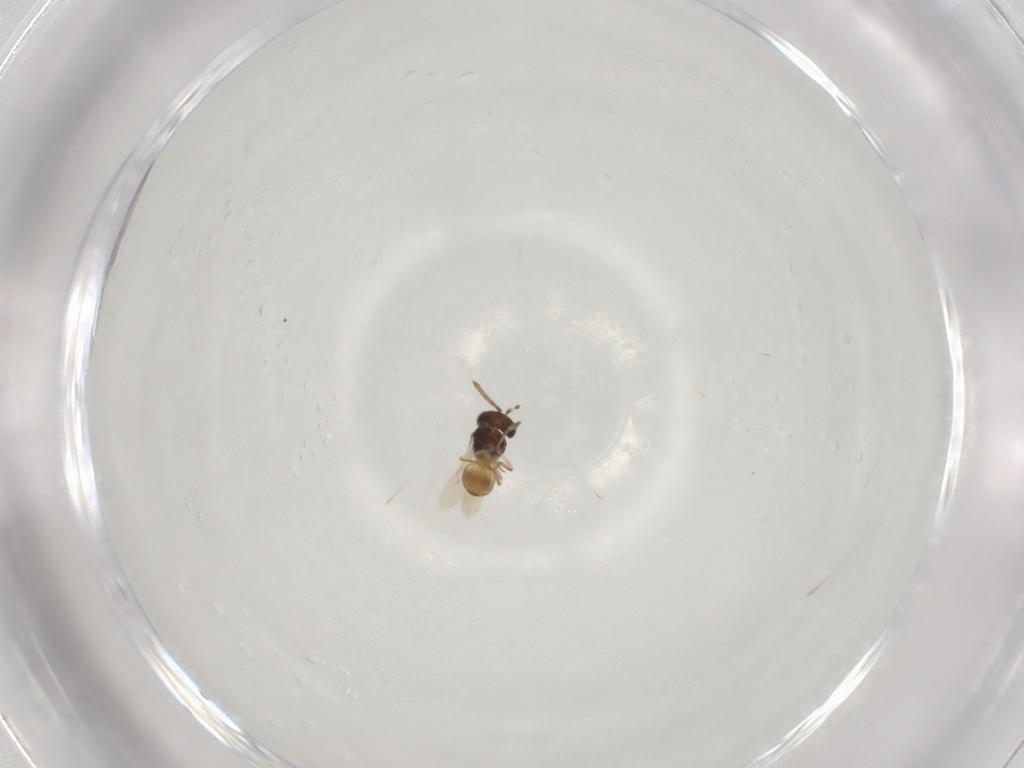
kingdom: Animalia
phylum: Arthropoda
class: Insecta
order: Hymenoptera
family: Scelionidae
